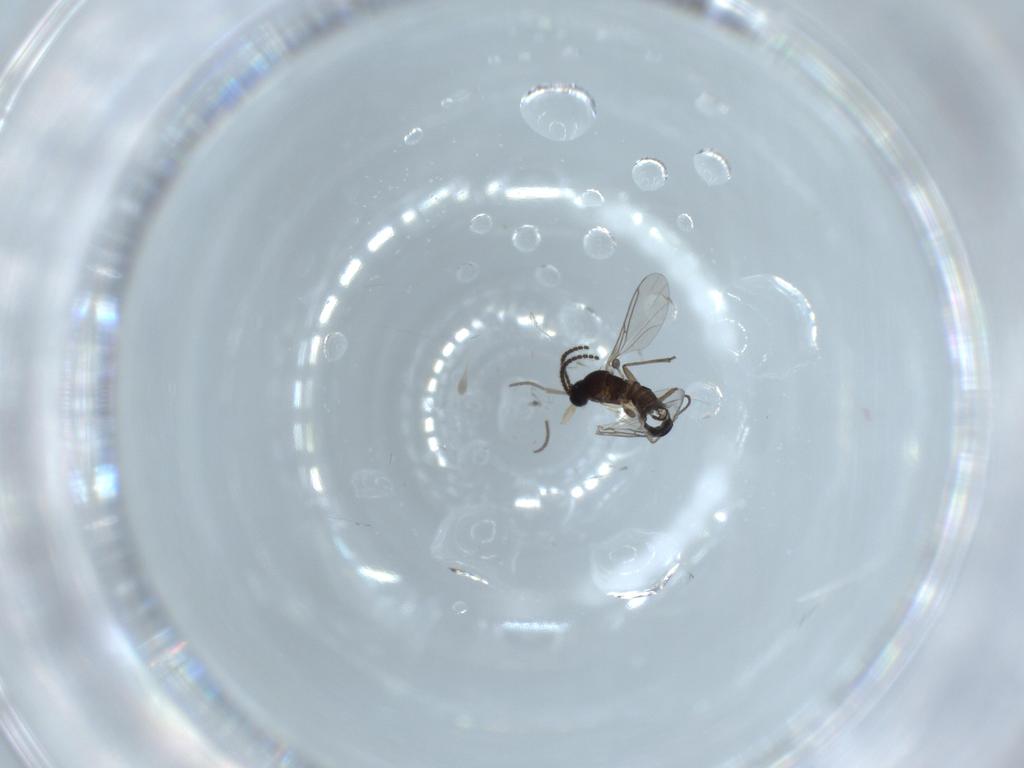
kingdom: Animalia
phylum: Arthropoda
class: Insecta
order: Diptera
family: Sciaridae
